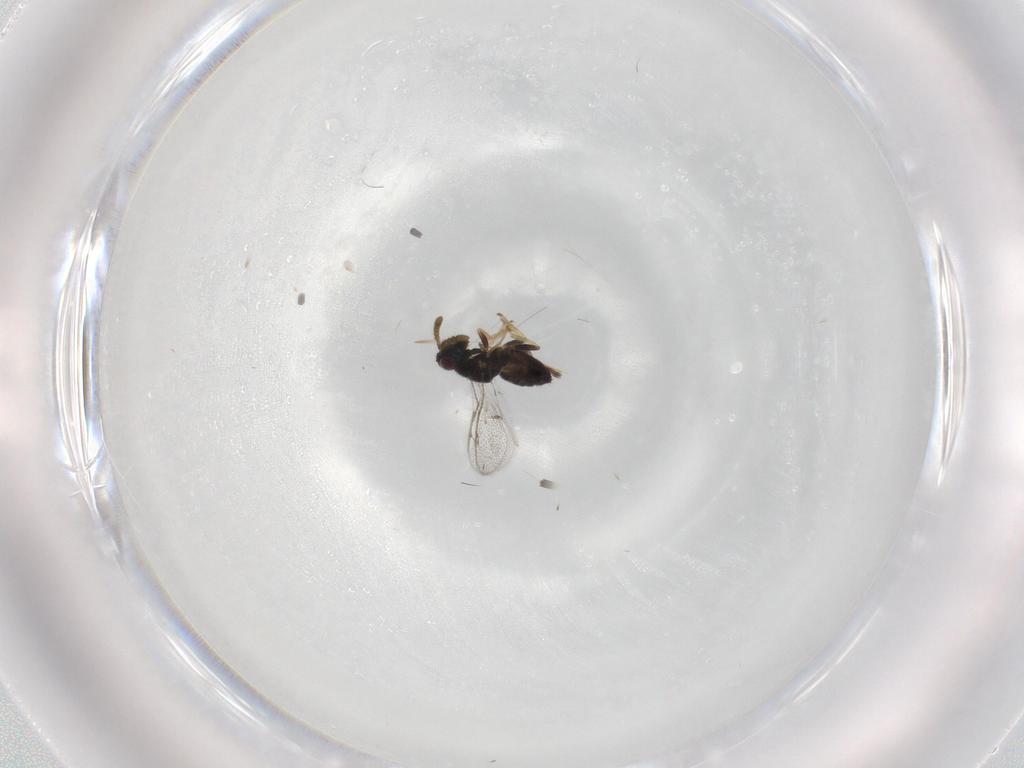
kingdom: Animalia
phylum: Arthropoda
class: Insecta
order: Hymenoptera
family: Pirenidae
